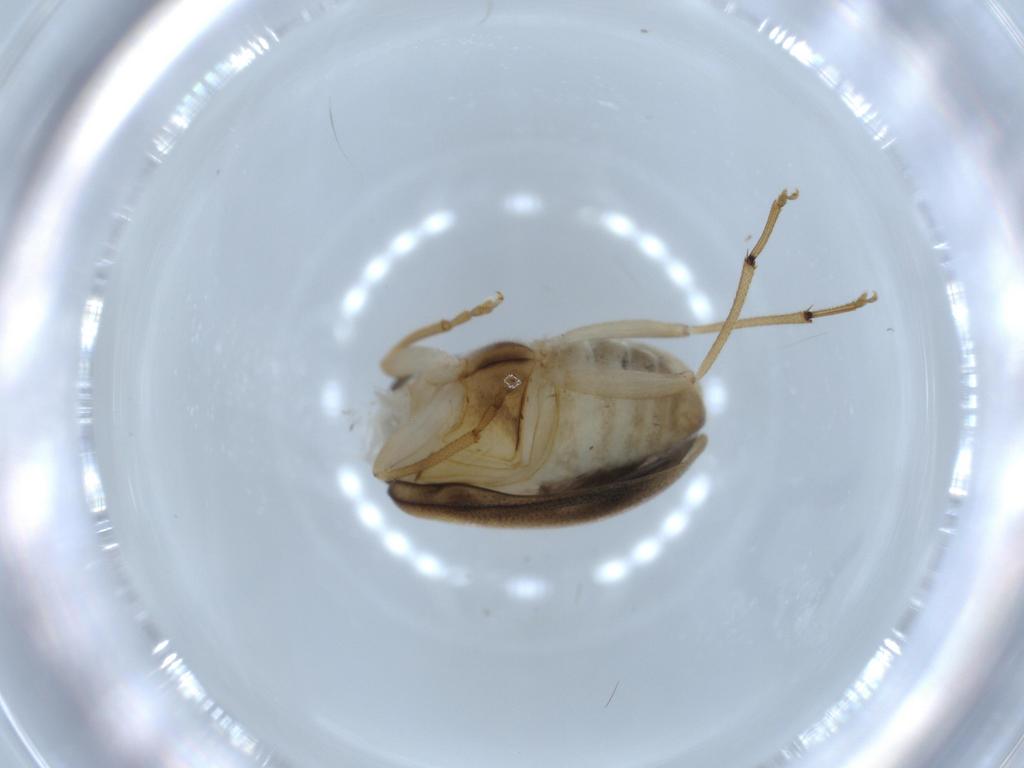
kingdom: Animalia
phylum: Arthropoda
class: Insecta
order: Coleoptera
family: Chrysomelidae
